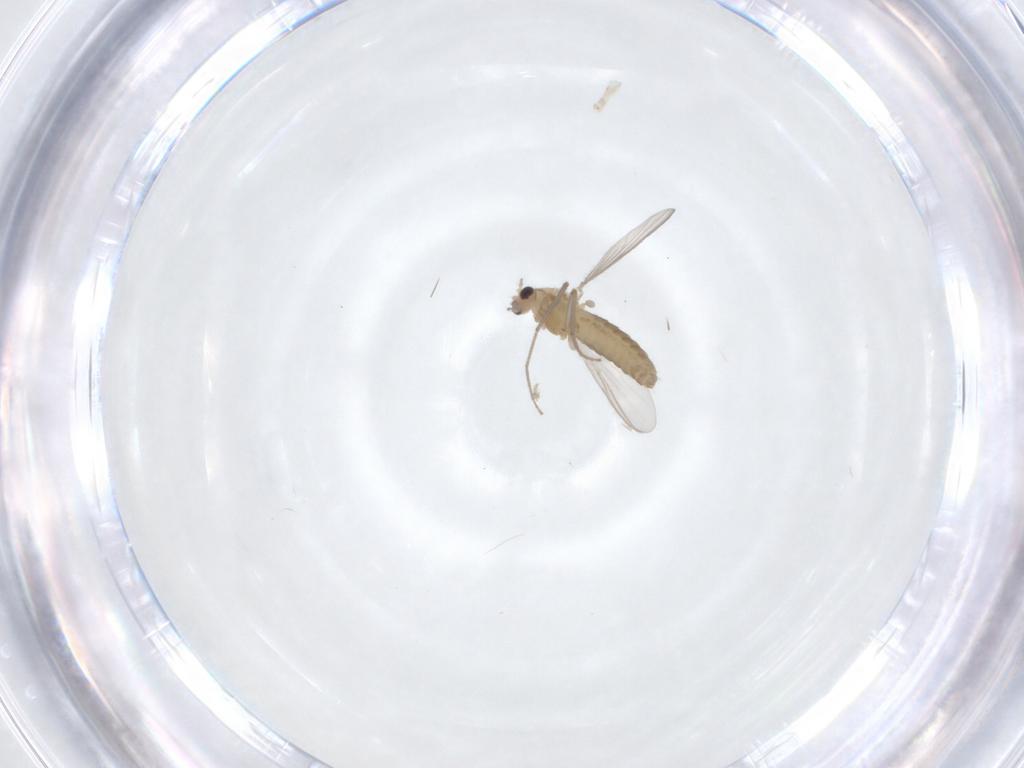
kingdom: Animalia
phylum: Arthropoda
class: Insecta
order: Diptera
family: Chironomidae
